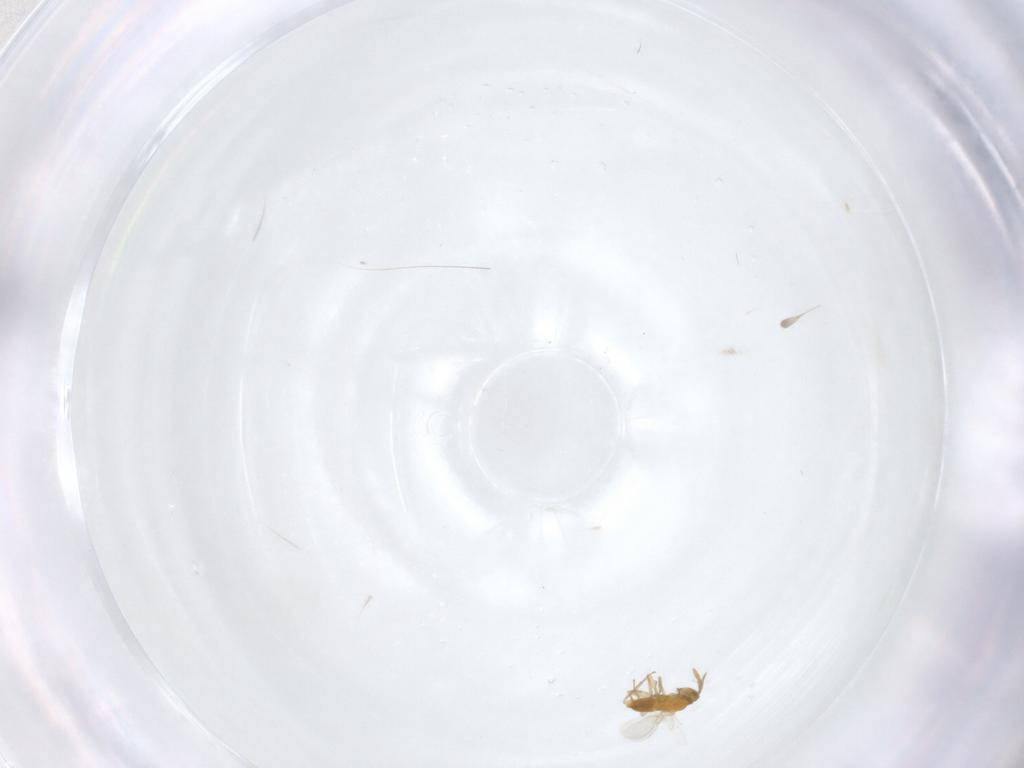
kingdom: Animalia
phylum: Arthropoda
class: Insecta
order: Hymenoptera
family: Aphelinidae
